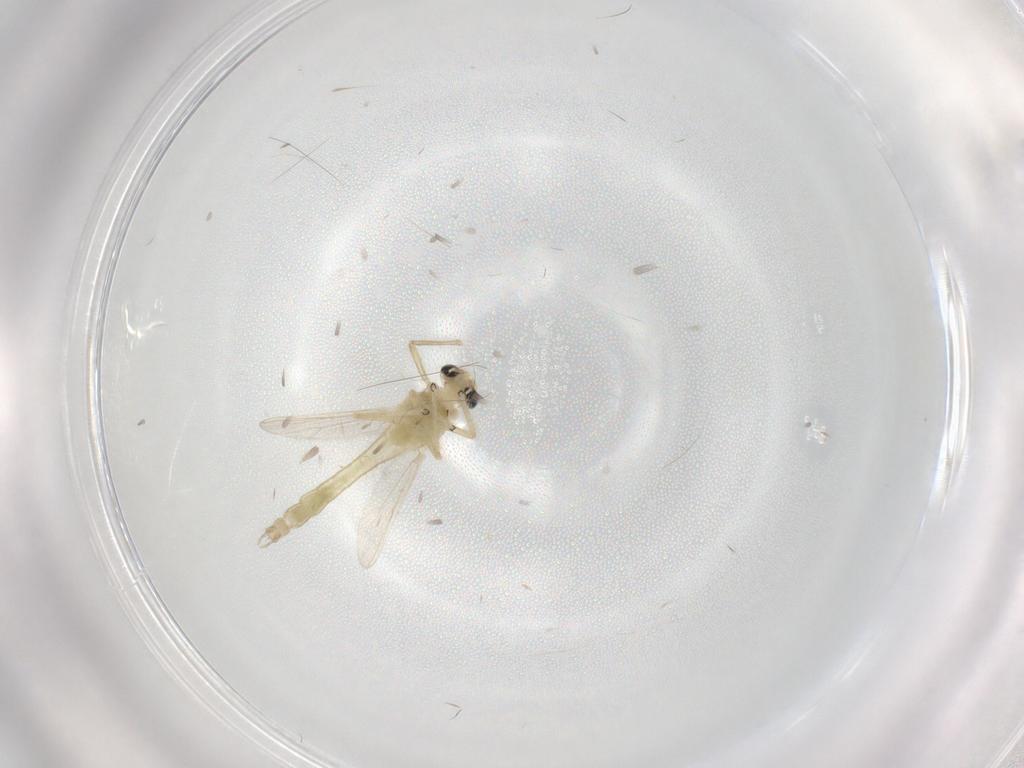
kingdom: Animalia
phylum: Arthropoda
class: Insecta
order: Diptera
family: Chironomidae
